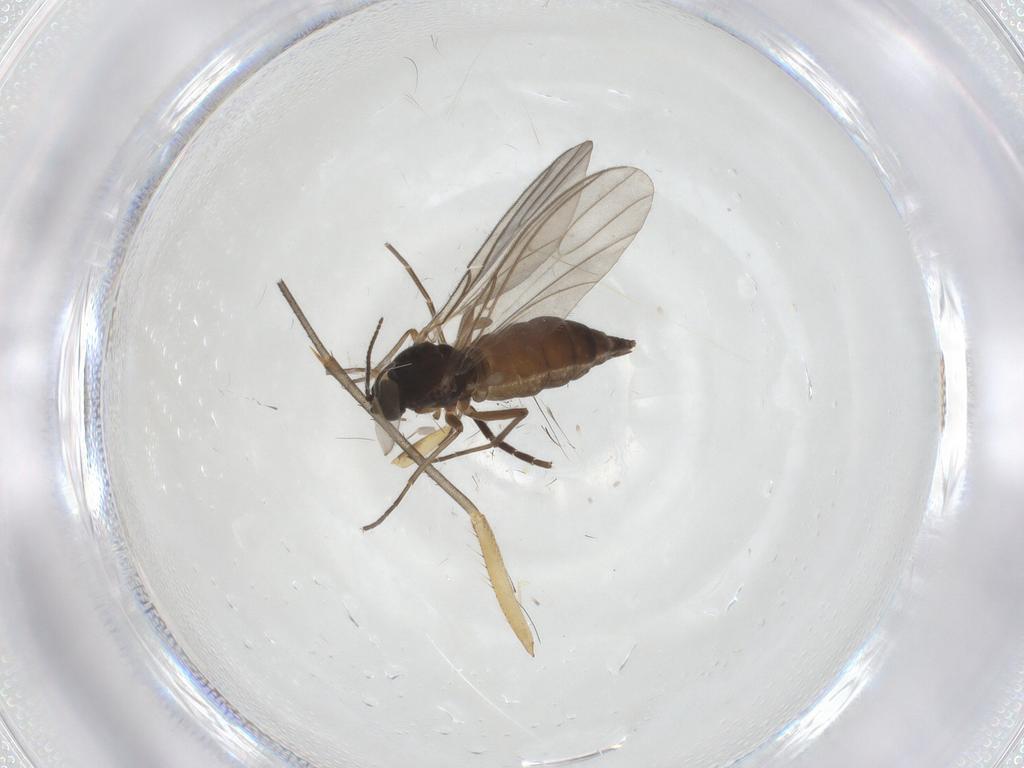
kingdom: Animalia
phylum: Arthropoda
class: Insecta
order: Diptera
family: Sciaridae
